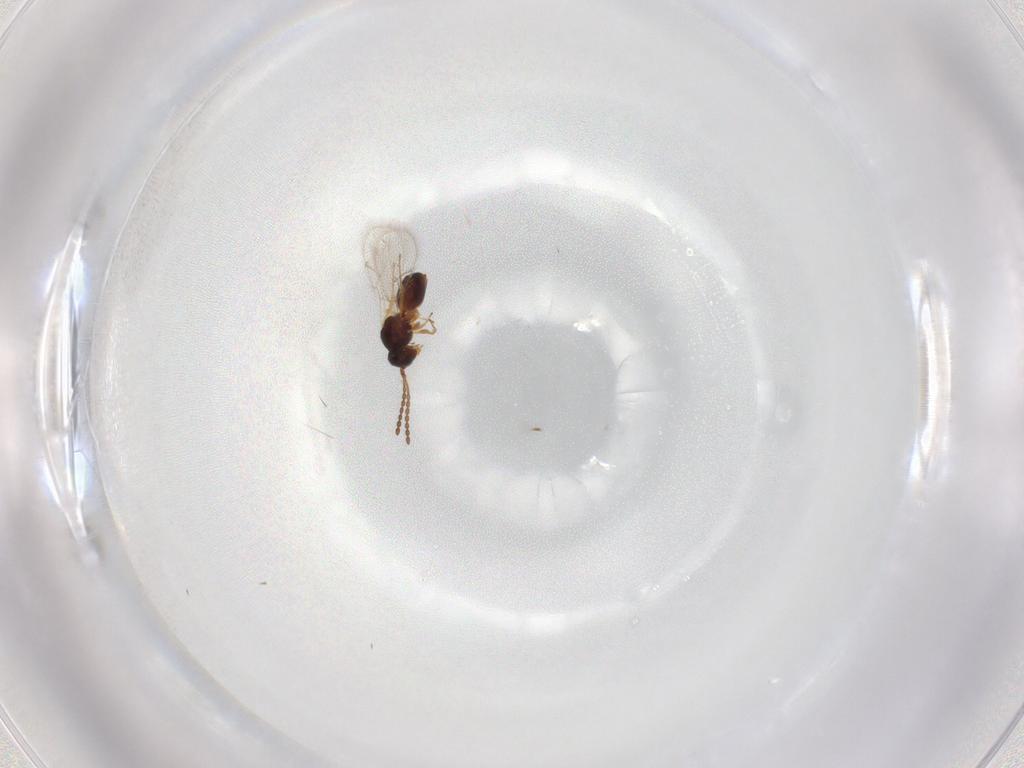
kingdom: Animalia
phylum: Arthropoda
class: Insecta
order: Hymenoptera
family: Figitidae
